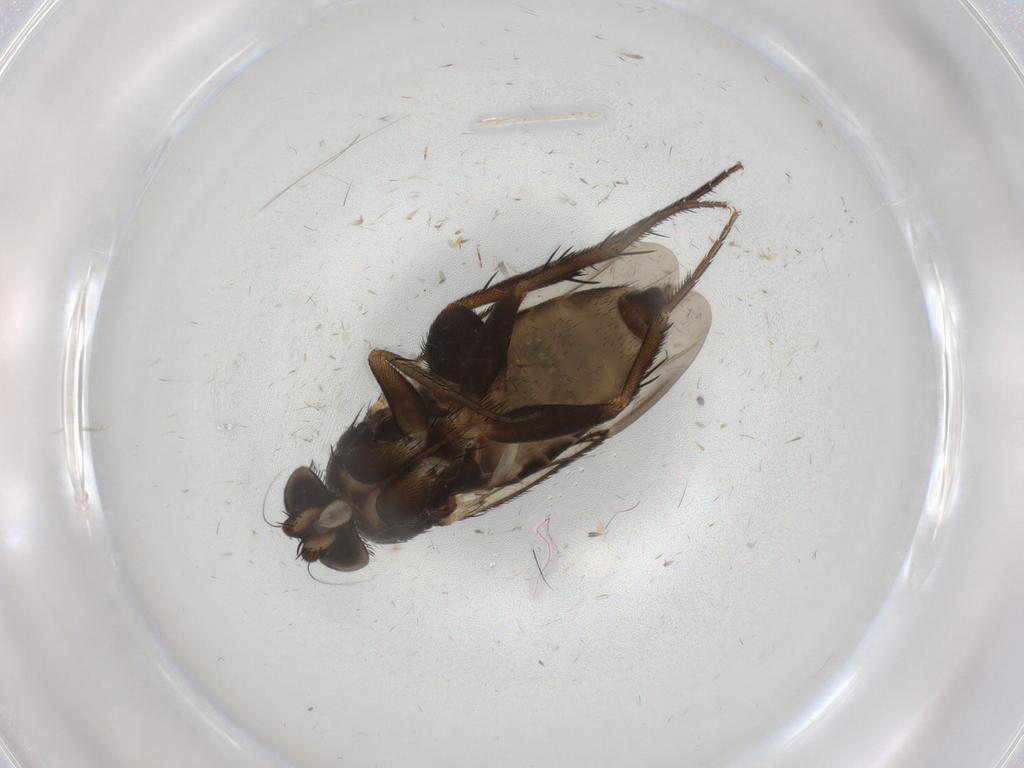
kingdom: Animalia
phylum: Arthropoda
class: Insecta
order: Diptera
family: Phoridae
